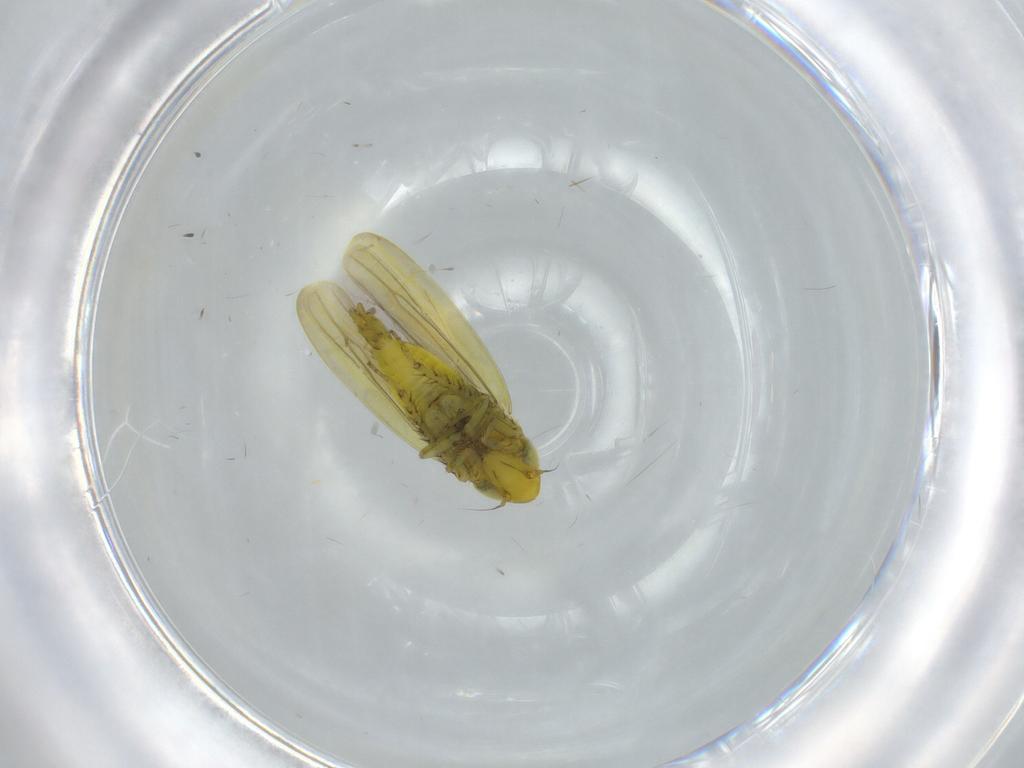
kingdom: Animalia
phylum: Arthropoda
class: Insecta
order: Hemiptera
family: Cicadellidae
